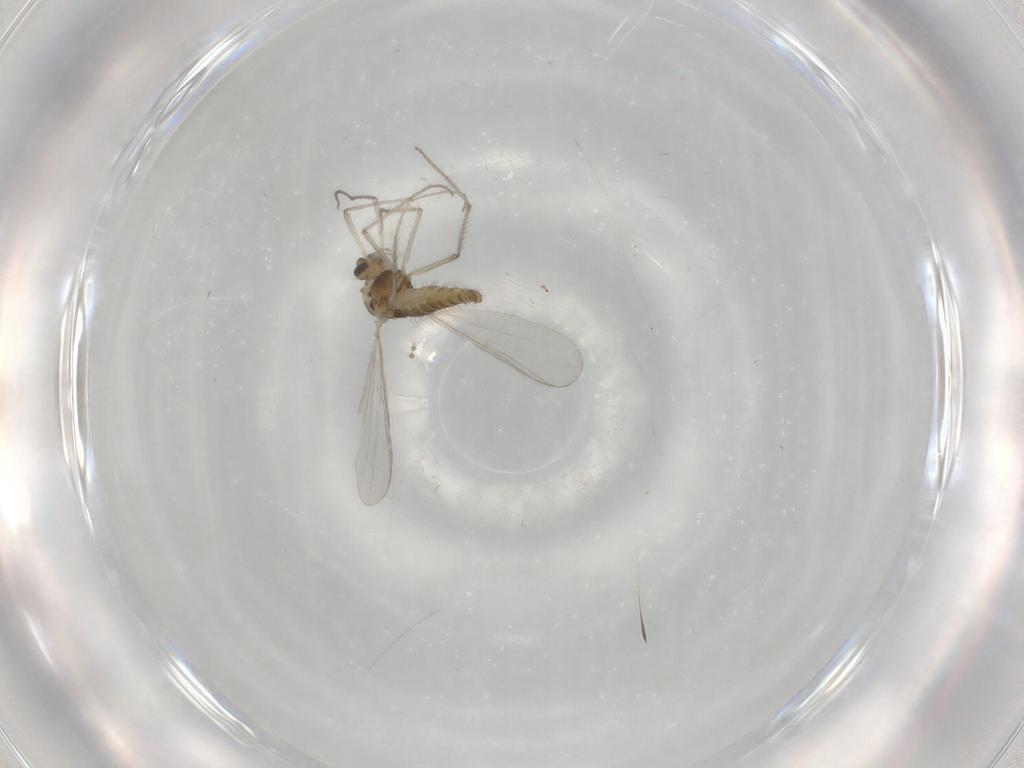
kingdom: Animalia
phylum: Arthropoda
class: Insecta
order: Diptera
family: Chironomidae
